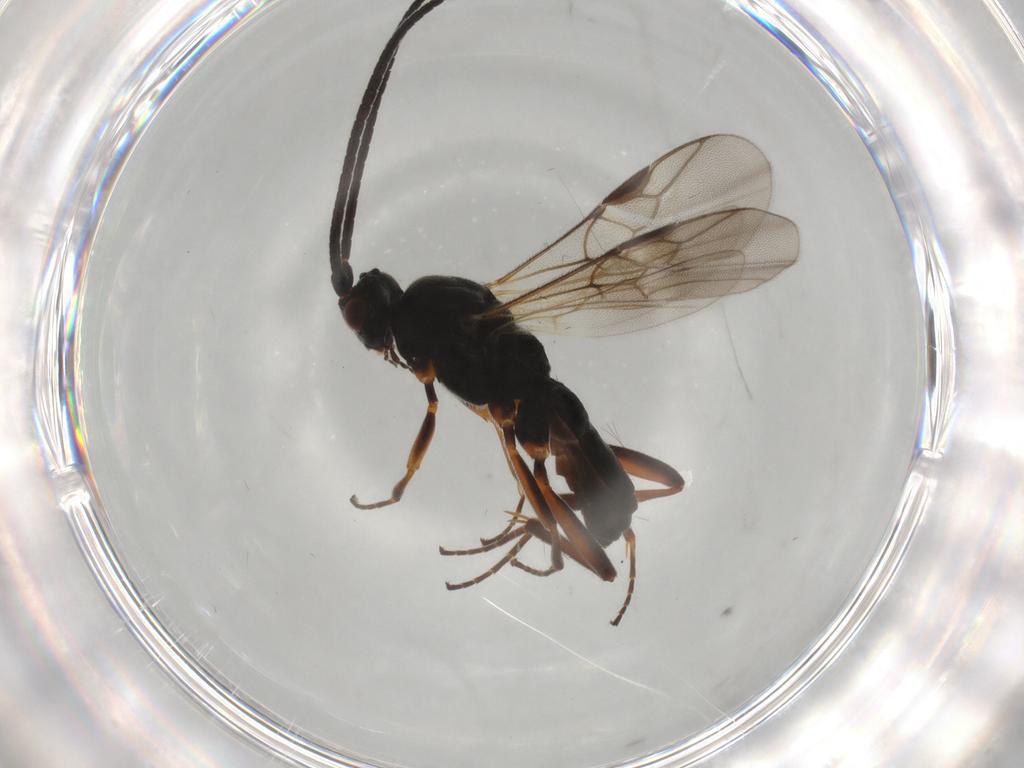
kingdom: Animalia
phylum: Arthropoda
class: Insecta
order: Hymenoptera
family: Braconidae
